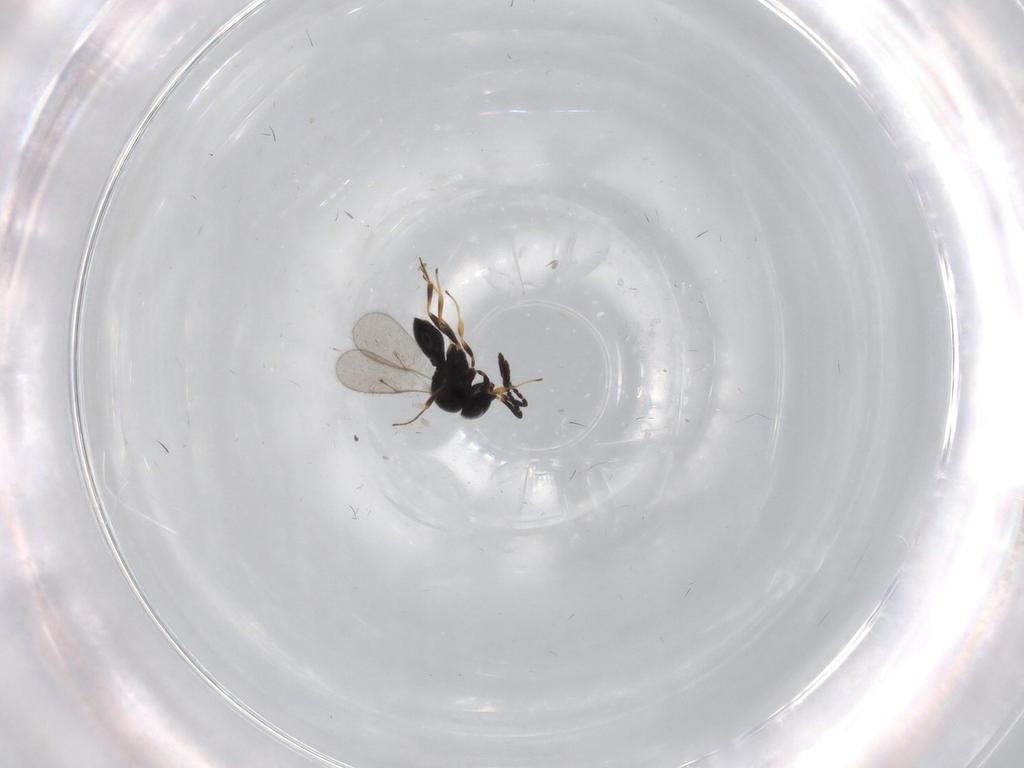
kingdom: Animalia
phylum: Arthropoda
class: Insecta
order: Hymenoptera
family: Scelionidae
